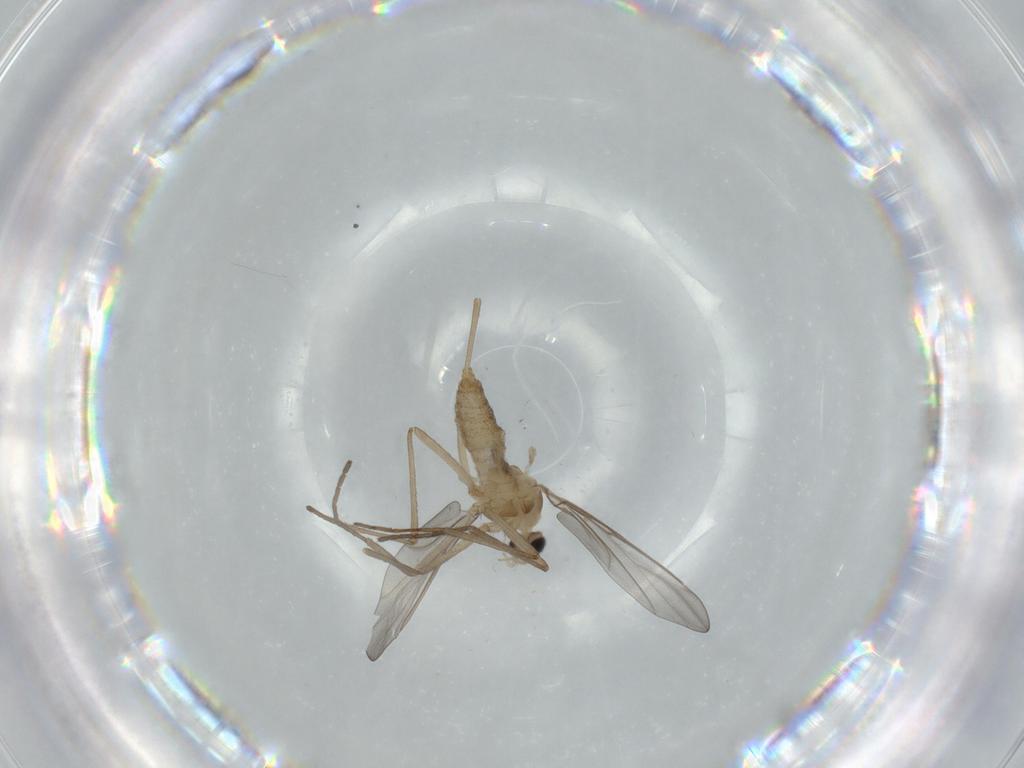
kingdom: Animalia
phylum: Arthropoda
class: Insecta
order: Diptera
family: Cecidomyiidae
